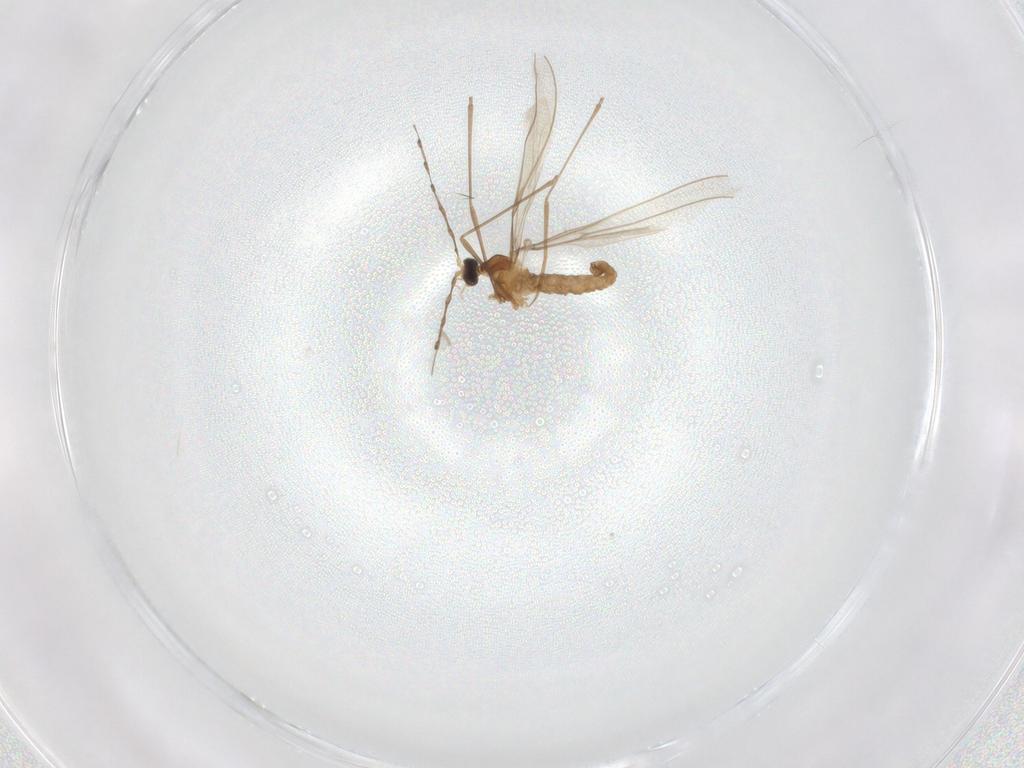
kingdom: Animalia
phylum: Arthropoda
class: Insecta
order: Diptera
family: Cecidomyiidae
